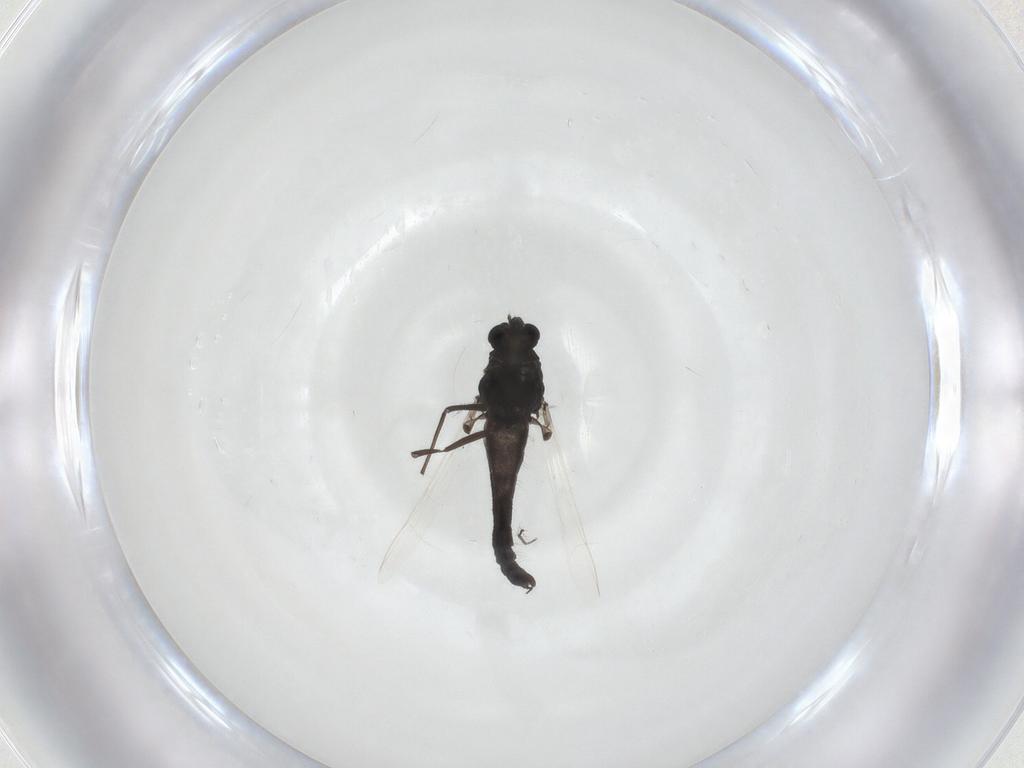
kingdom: Animalia
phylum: Arthropoda
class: Insecta
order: Diptera
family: Chironomidae
